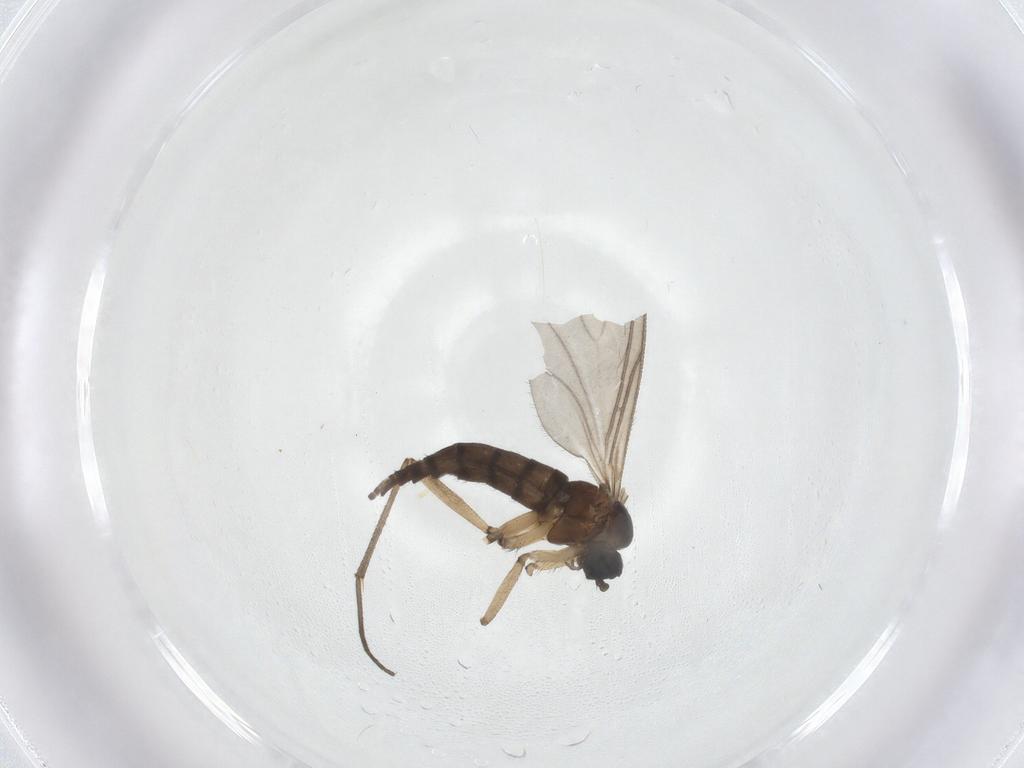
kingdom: Animalia
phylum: Arthropoda
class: Insecta
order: Diptera
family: Sciaridae
